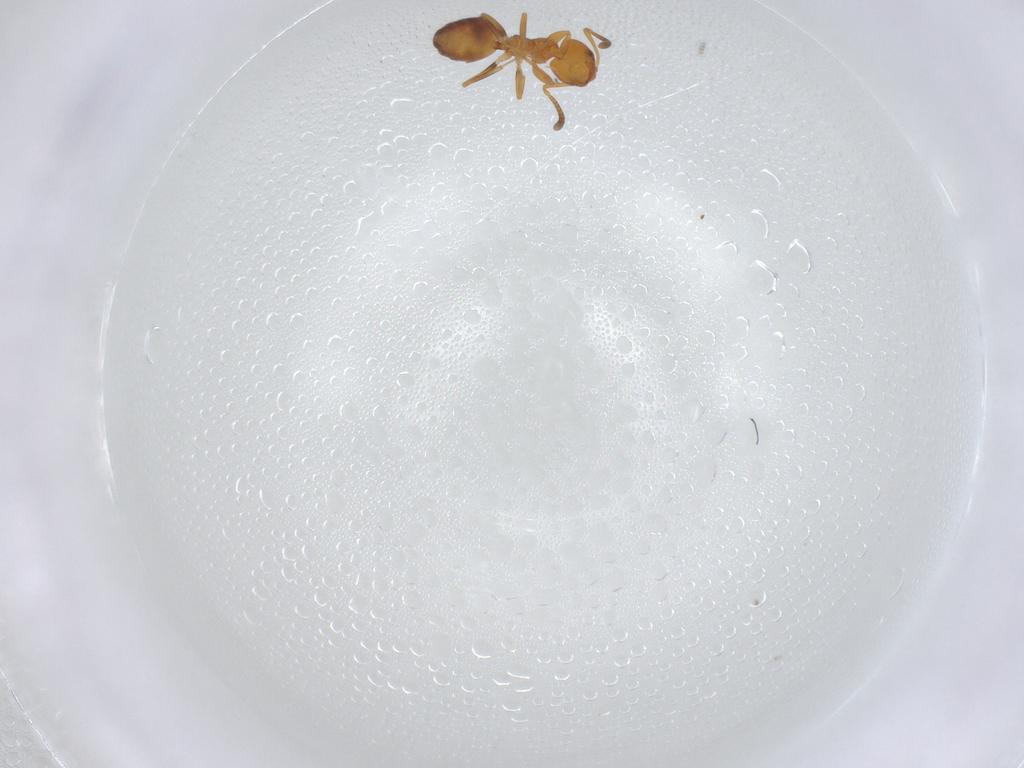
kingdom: Animalia
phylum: Arthropoda
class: Insecta
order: Hymenoptera
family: Formicidae
